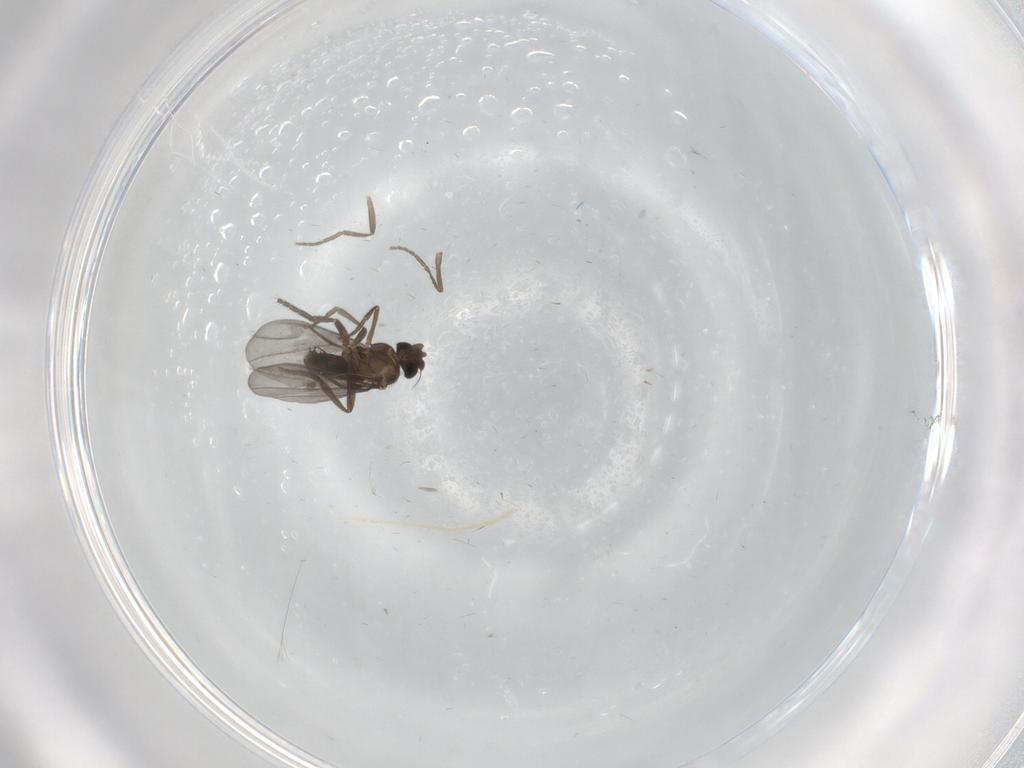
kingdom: Animalia
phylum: Arthropoda
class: Insecta
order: Diptera
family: Phoridae
